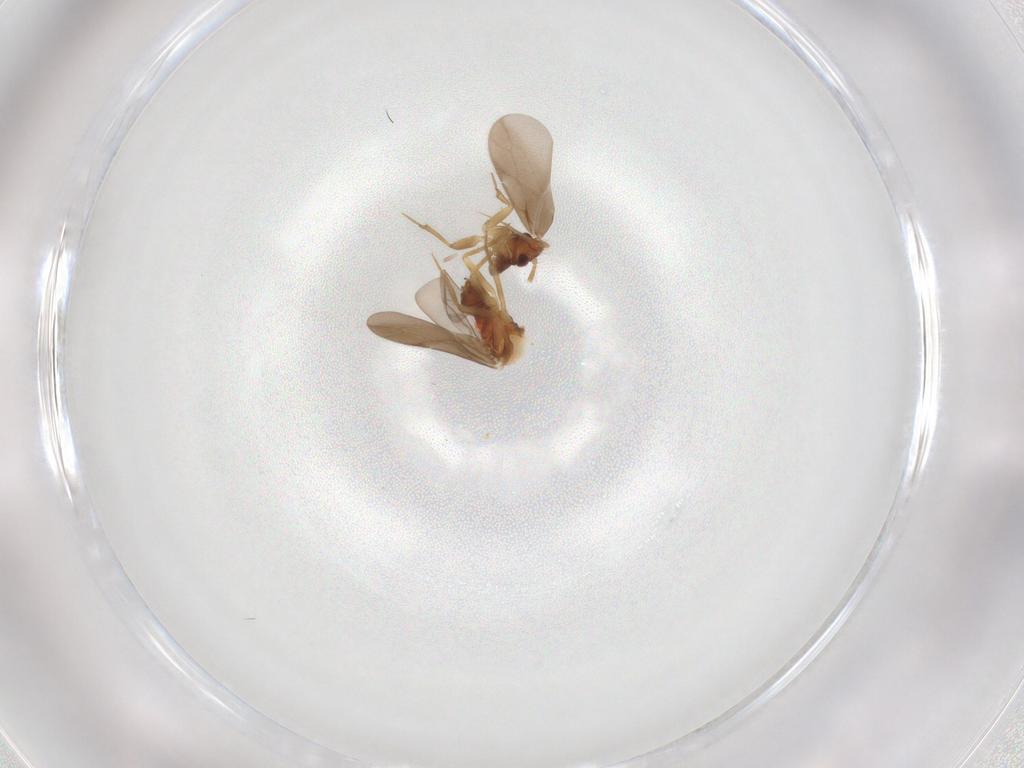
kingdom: Animalia
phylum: Arthropoda
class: Insecta
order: Hemiptera
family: Ceratocombidae
